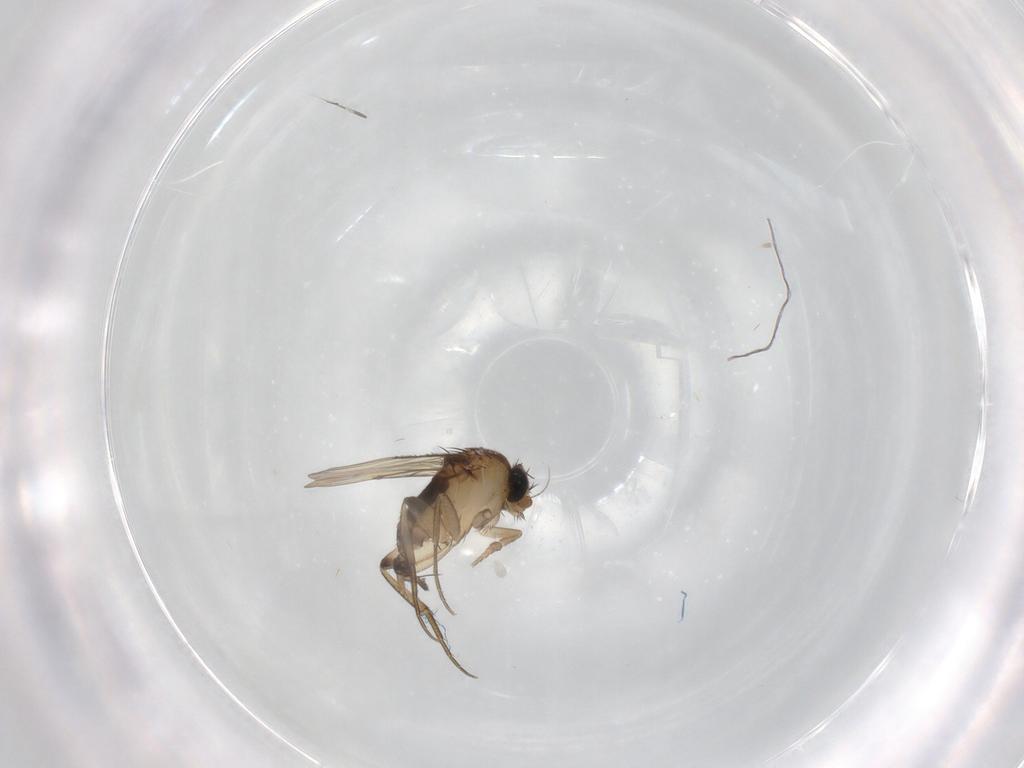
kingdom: Animalia
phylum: Arthropoda
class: Insecta
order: Diptera
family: Phoridae
